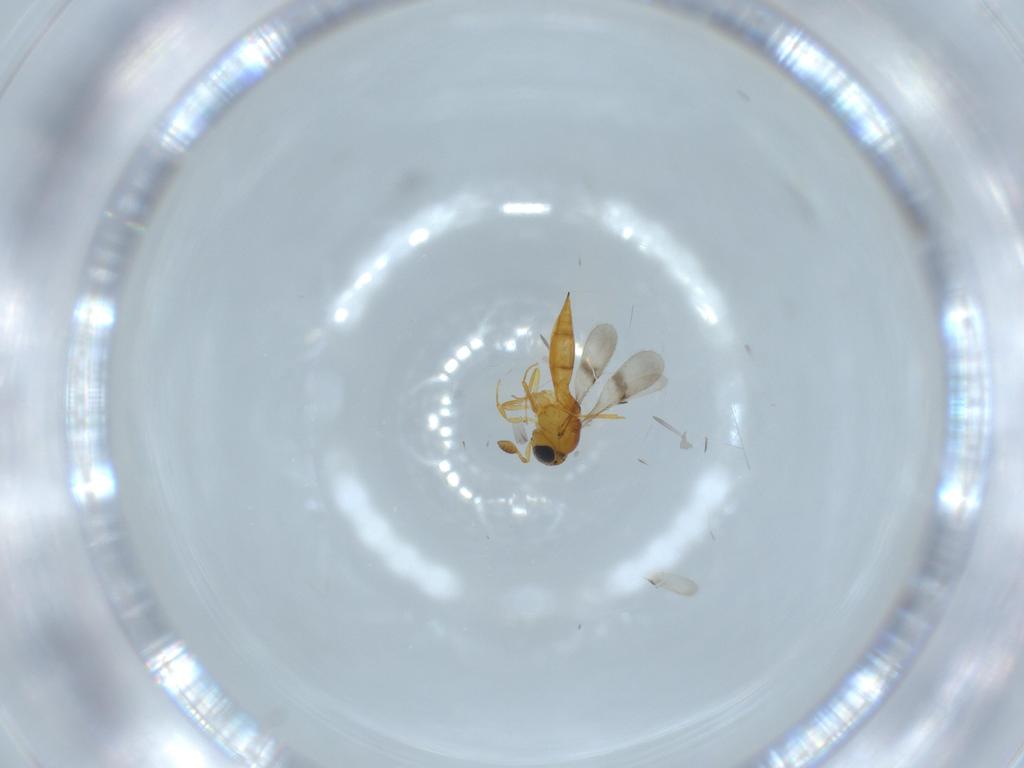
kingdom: Animalia
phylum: Arthropoda
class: Insecta
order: Hymenoptera
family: Scelionidae
